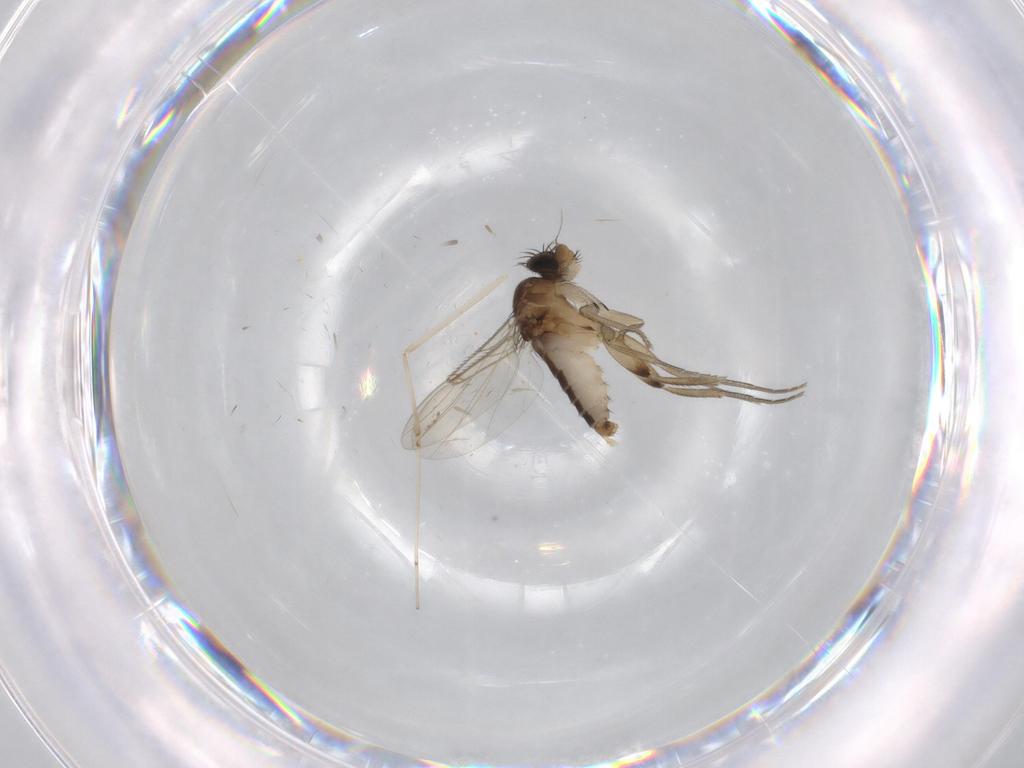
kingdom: Animalia
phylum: Arthropoda
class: Insecta
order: Diptera
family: Phoridae
